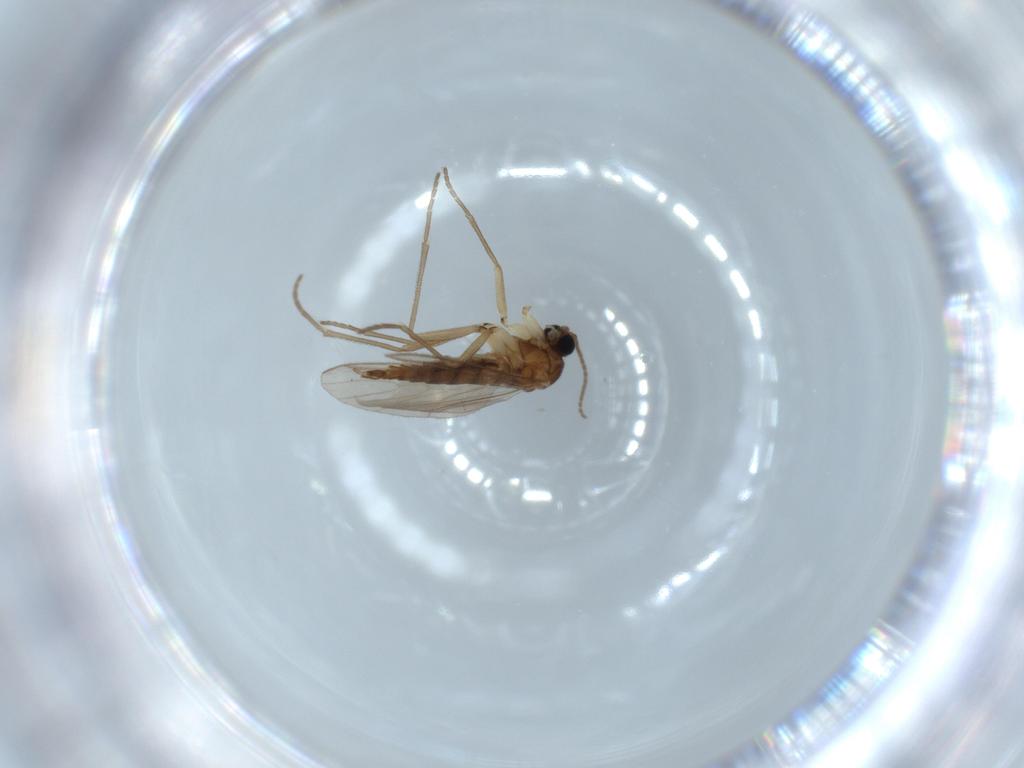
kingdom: Animalia
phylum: Arthropoda
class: Insecta
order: Diptera
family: Sciaridae
